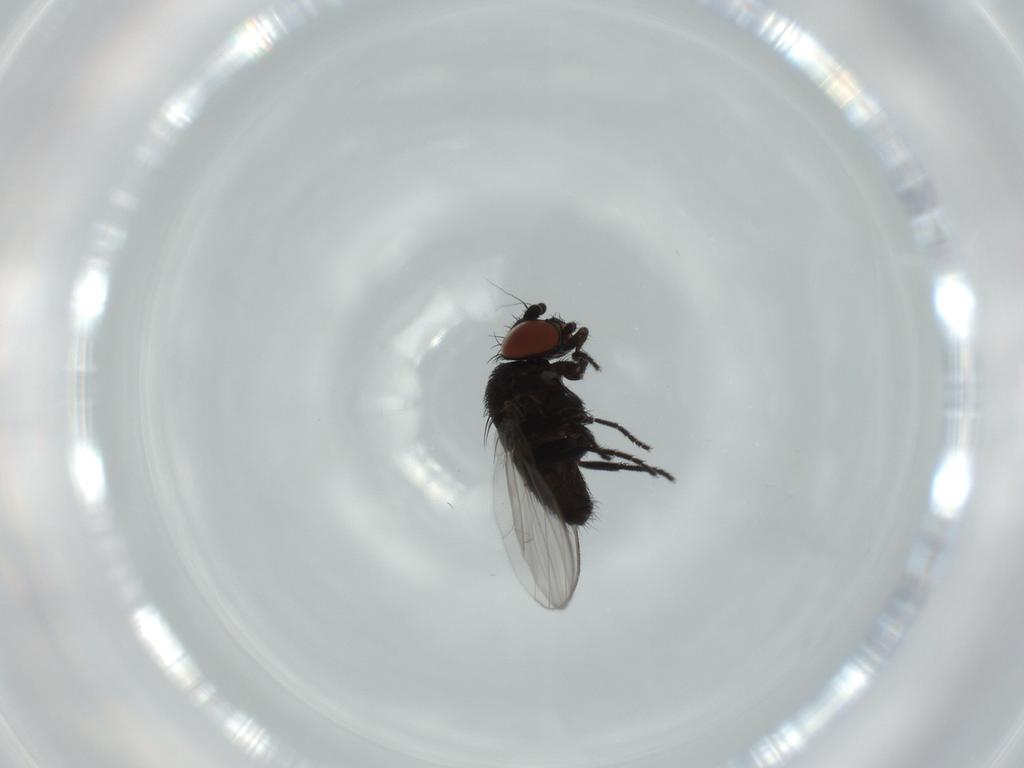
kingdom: Animalia
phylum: Arthropoda
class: Insecta
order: Diptera
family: Milichiidae
